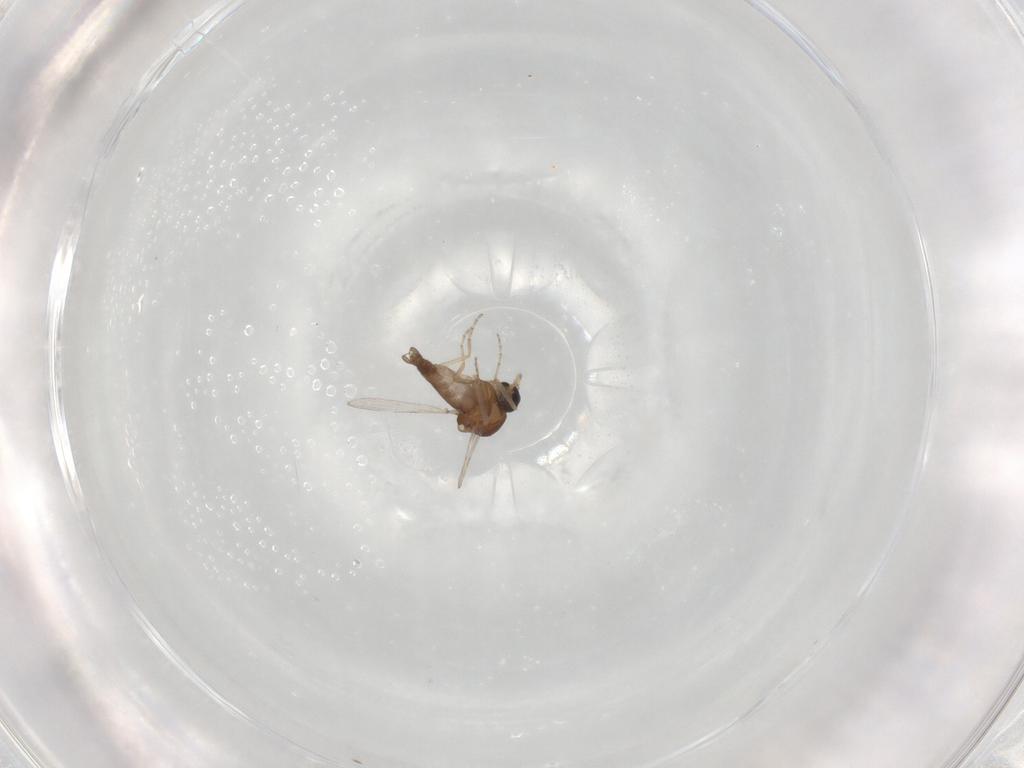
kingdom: Animalia
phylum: Arthropoda
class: Insecta
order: Diptera
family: Ceratopogonidae
